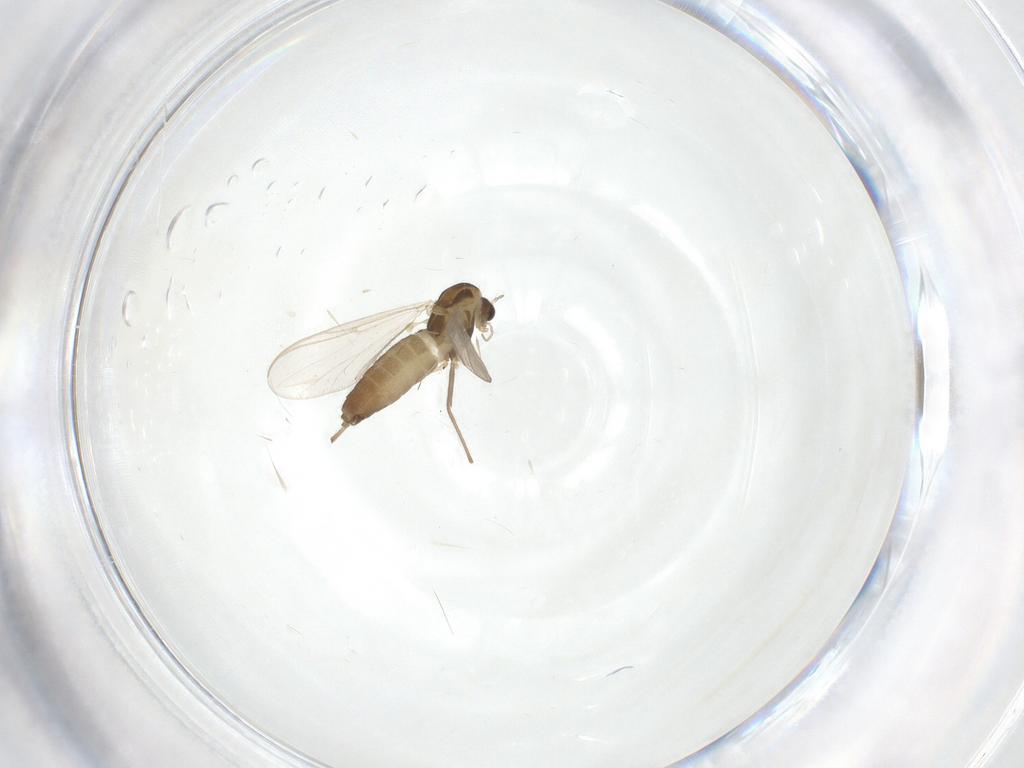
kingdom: Animalia
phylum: Arthropoda
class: Insecta
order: Diptera
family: Chironomidae
